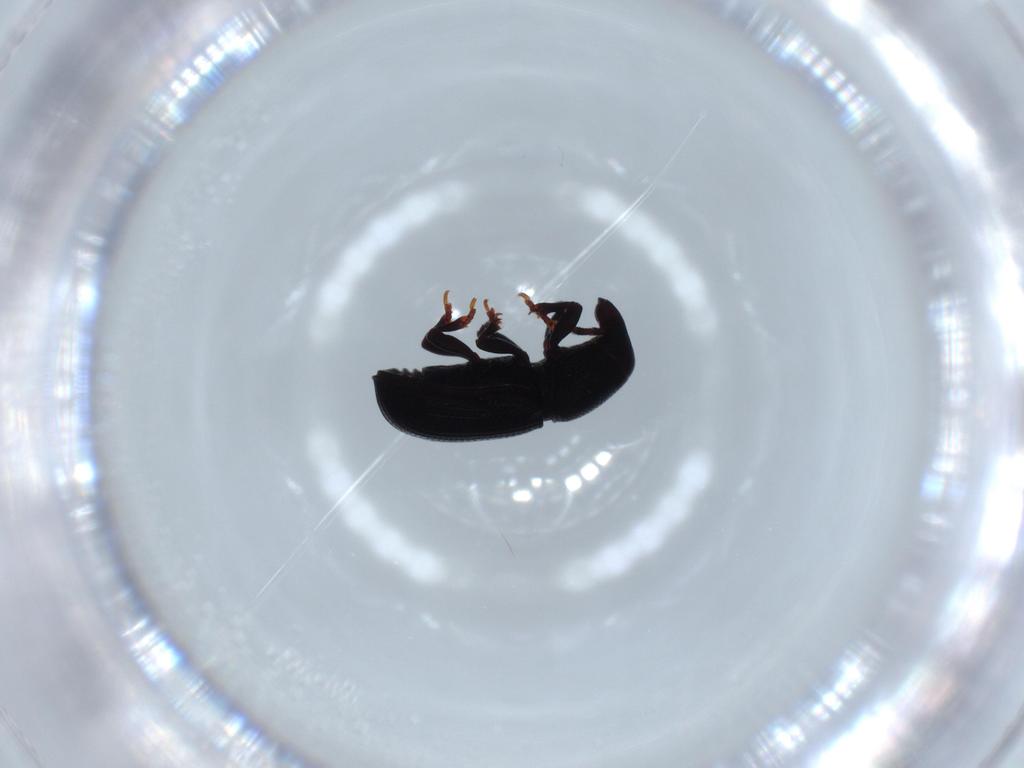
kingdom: Animalia
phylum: Arthropoda
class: Insecta
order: Coleoptera
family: Curculionidae
